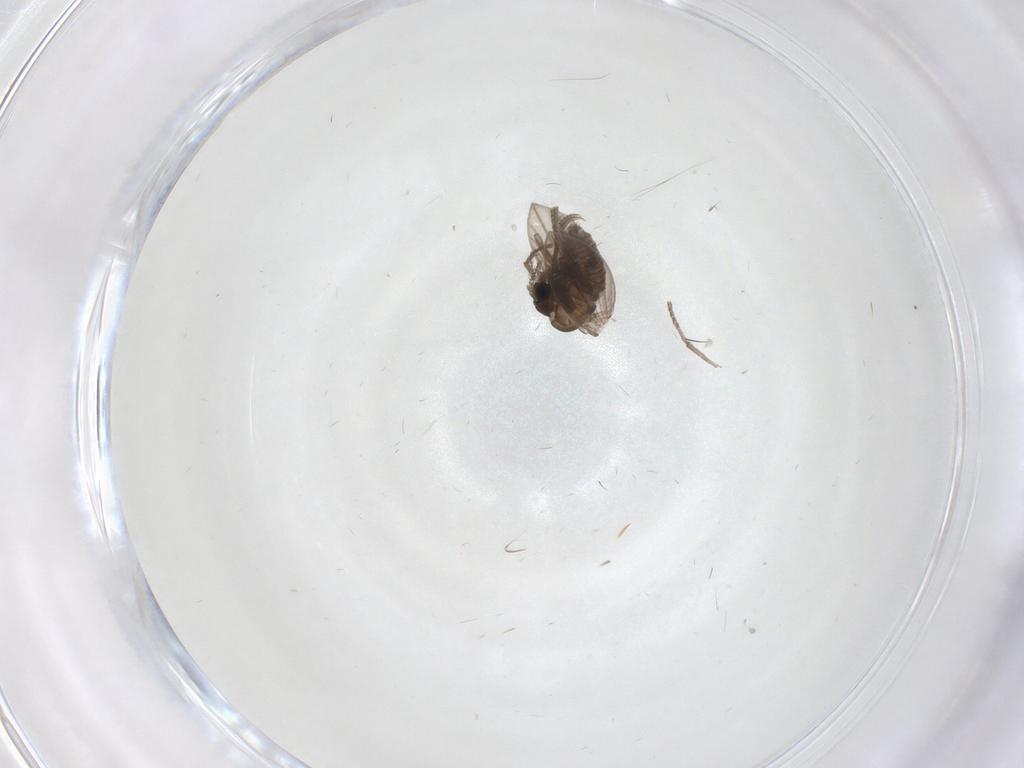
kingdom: Animalia
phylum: Arthropoda
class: Insecta
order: Diptera
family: Psychodidae
